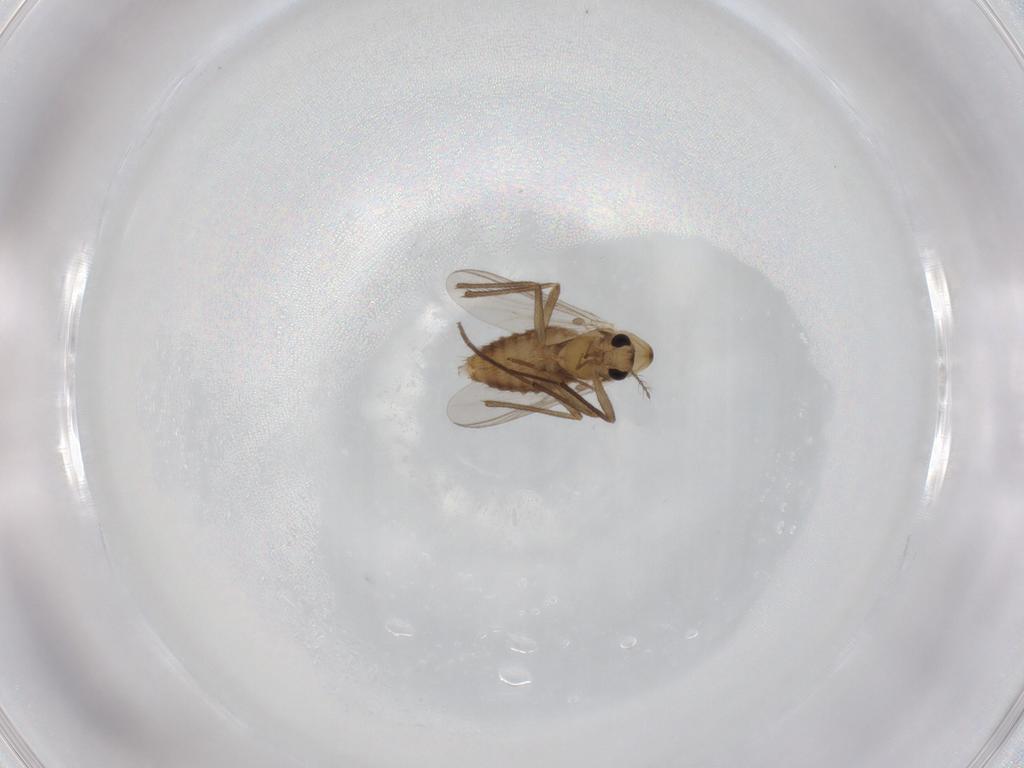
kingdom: Animalia
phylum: Arthropoda
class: Insecta
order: Diptera
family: Chironomidae
